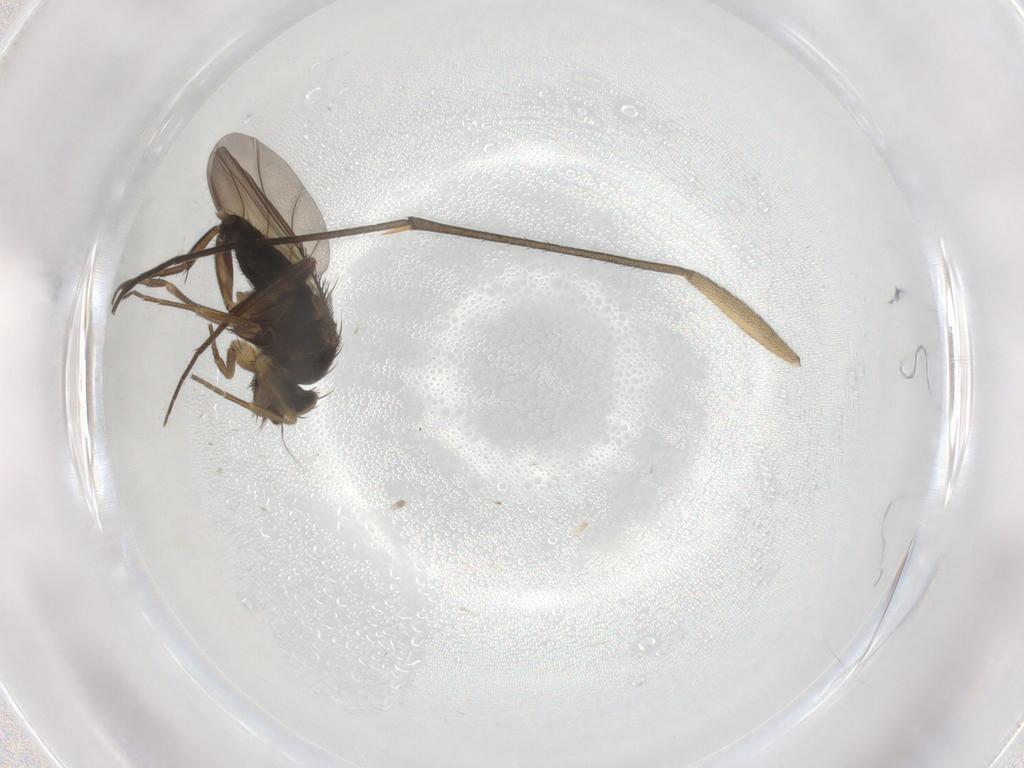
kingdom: Animalia
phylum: Arthropoda
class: Insecta
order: Diptera
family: Phoridae
